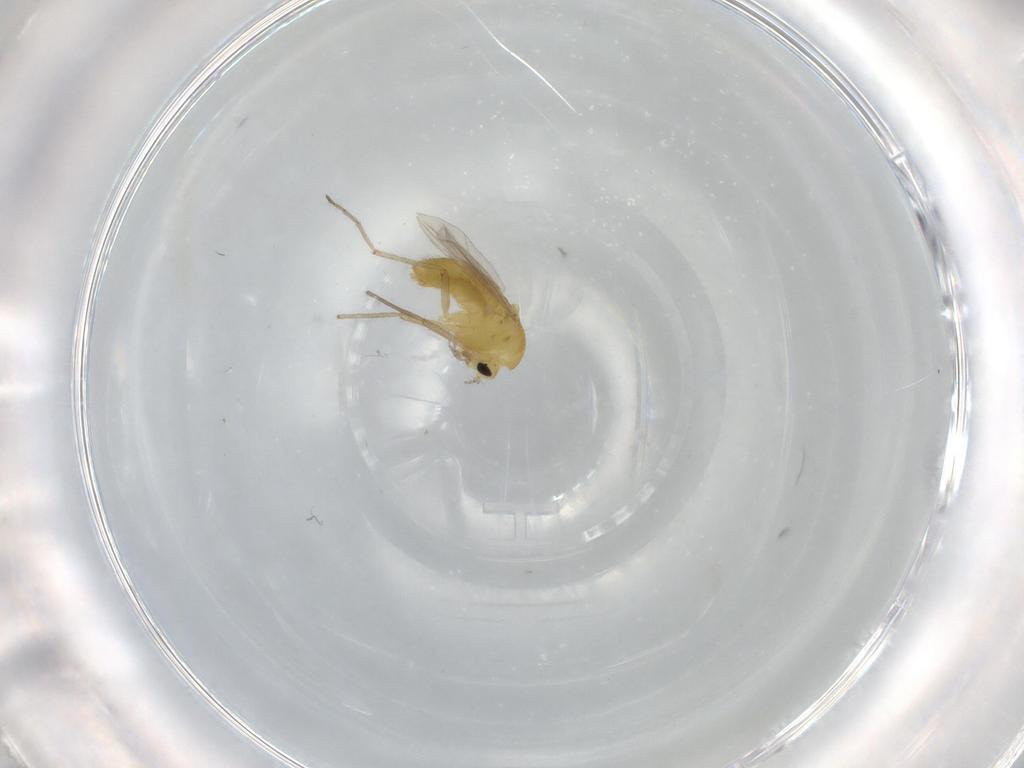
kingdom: Animalia
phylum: Arthropoda
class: Insecta
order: Diptera
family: Chironomidae
